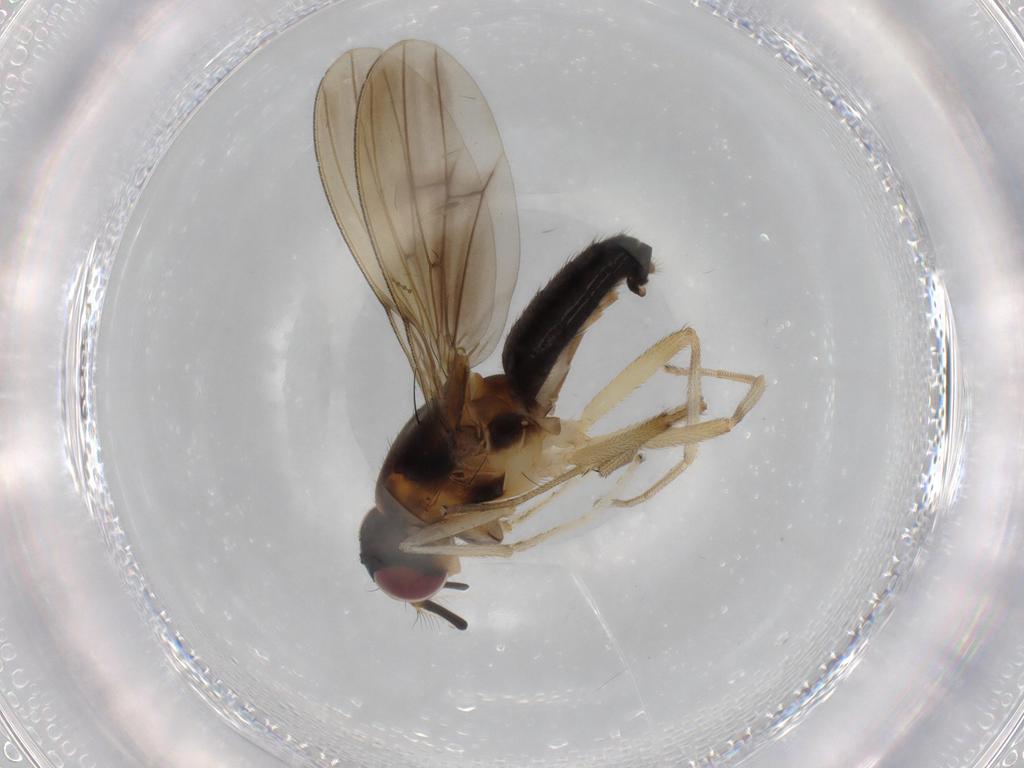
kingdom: Animalia
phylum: Arthropoda
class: Insecta
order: Diptera
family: Lauxaniidae
